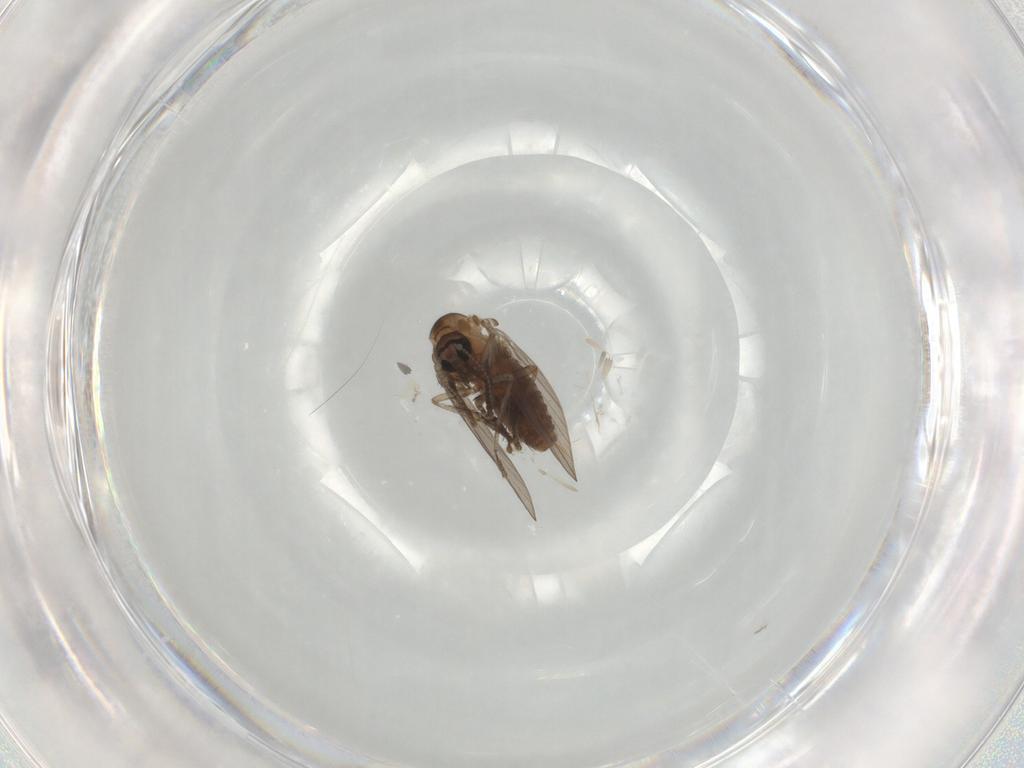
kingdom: Animalia
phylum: Arthropoda
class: Insecta
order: Diptera
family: Psychodidae
